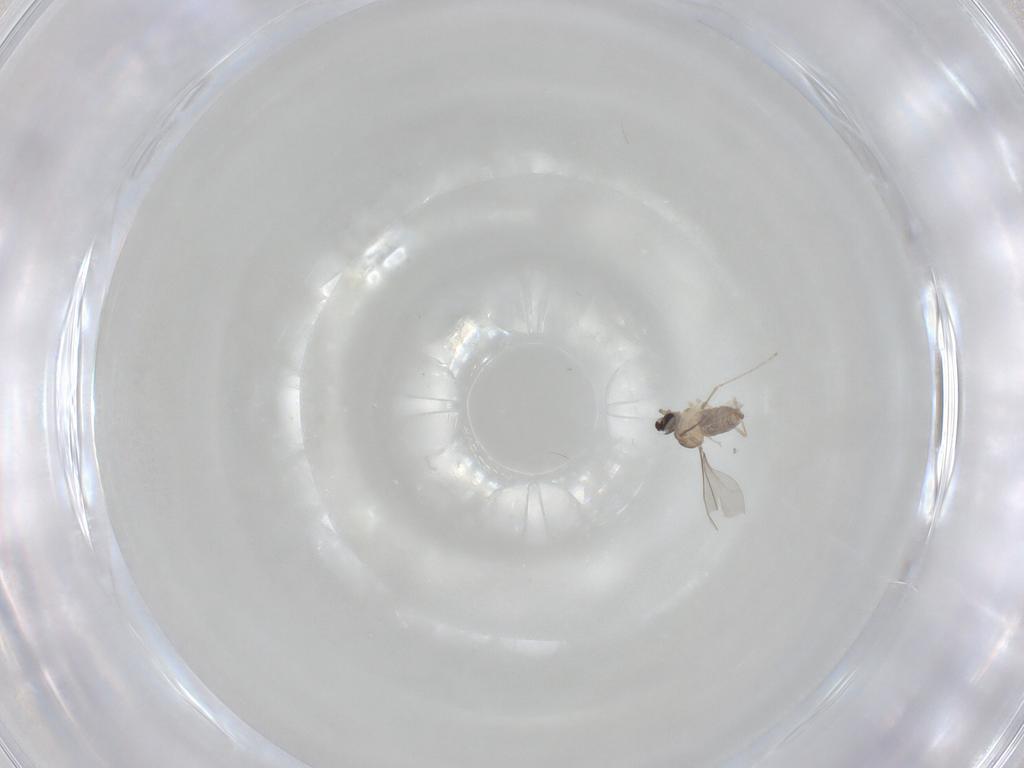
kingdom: Animalia
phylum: Arthropoda
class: Insecta
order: Diptera
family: Cecidomyiidae
